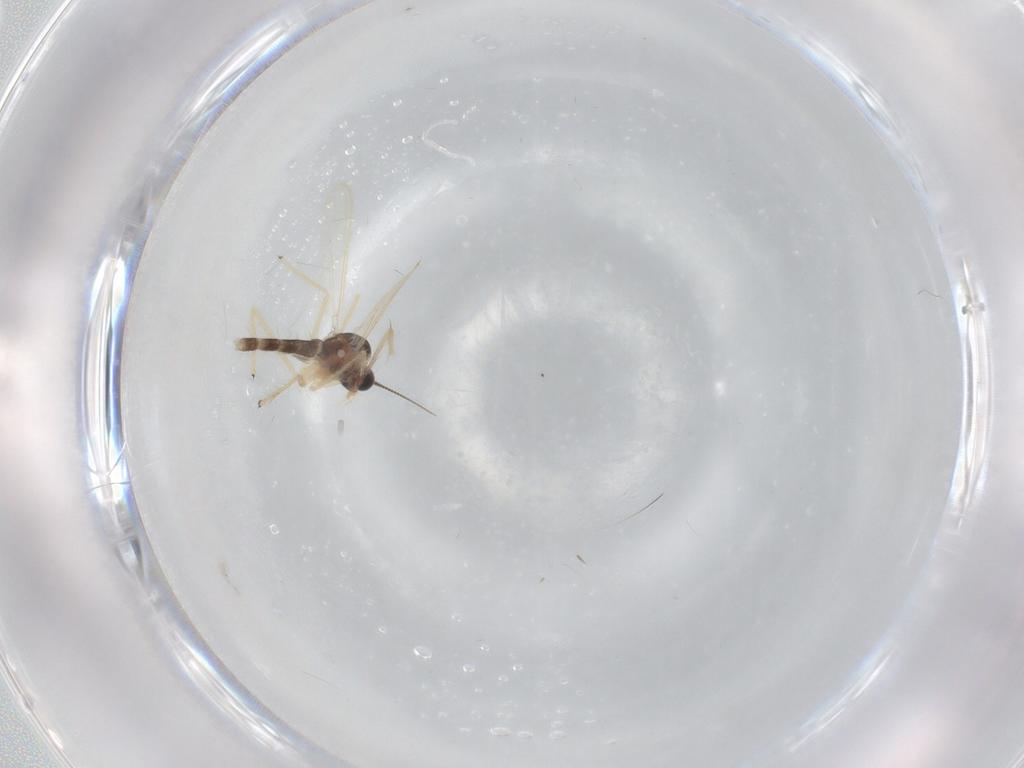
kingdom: Animalia
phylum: Arthropoda
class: Insecta
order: Diptera
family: Chironomidae
